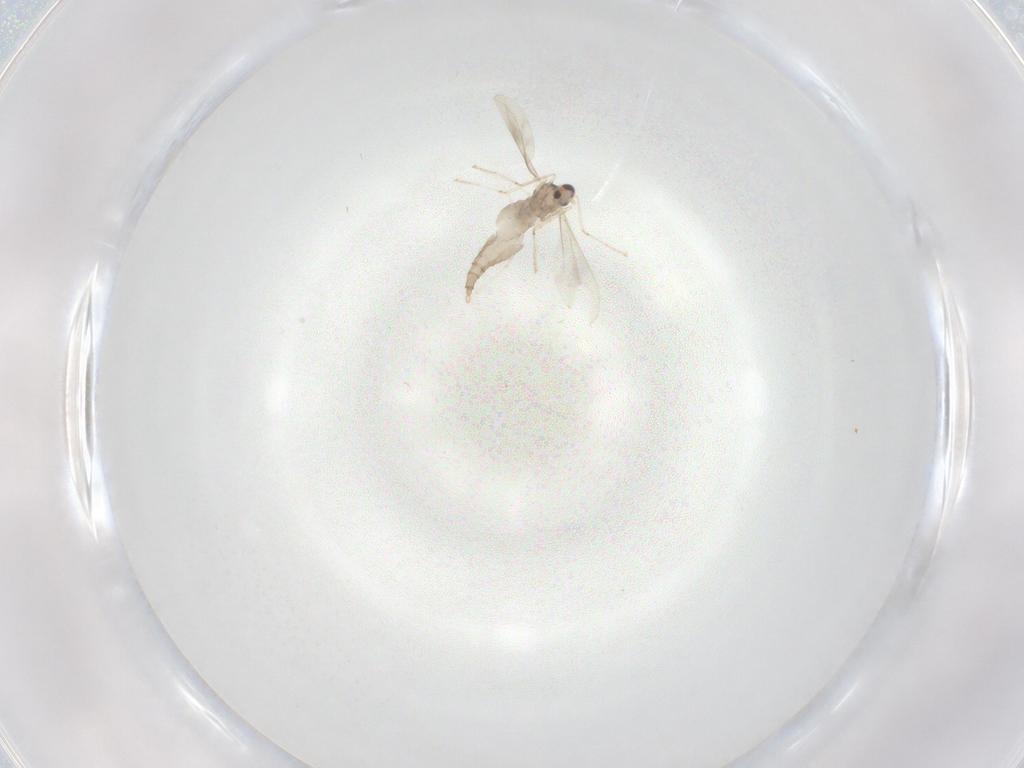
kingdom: Animalia
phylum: Arthropoda
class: Insecta
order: Diptera
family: Cecidomyiidae
